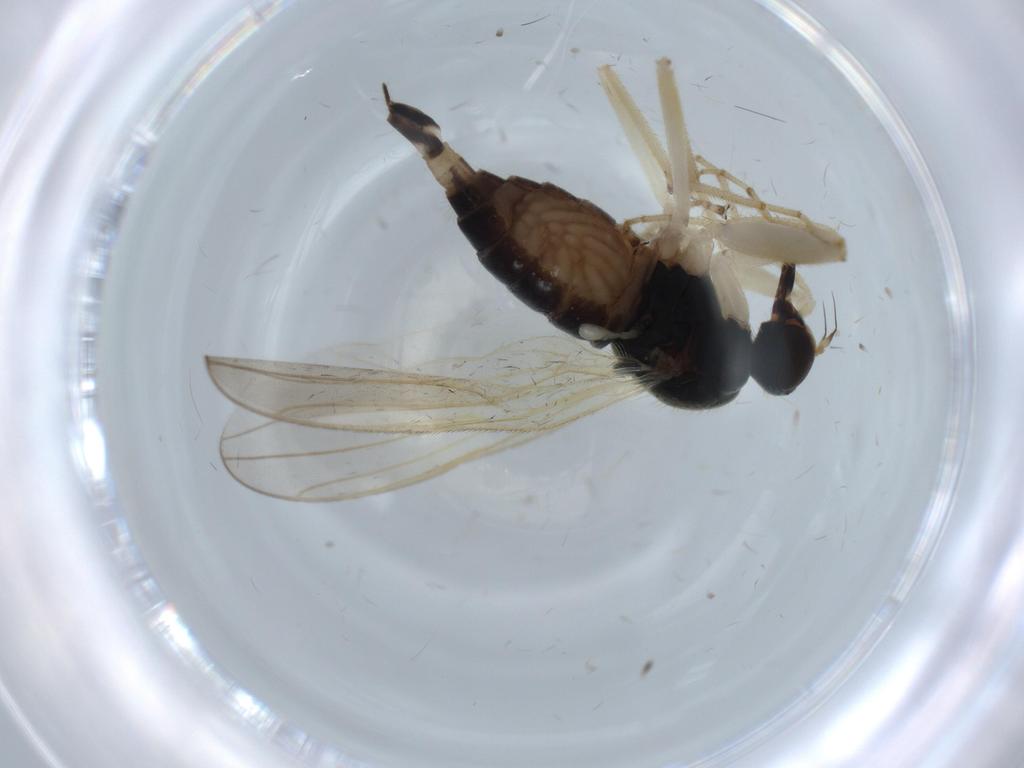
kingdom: Animalia
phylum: Arthropoda
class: Insecta
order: Diptera
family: Hybotidae
